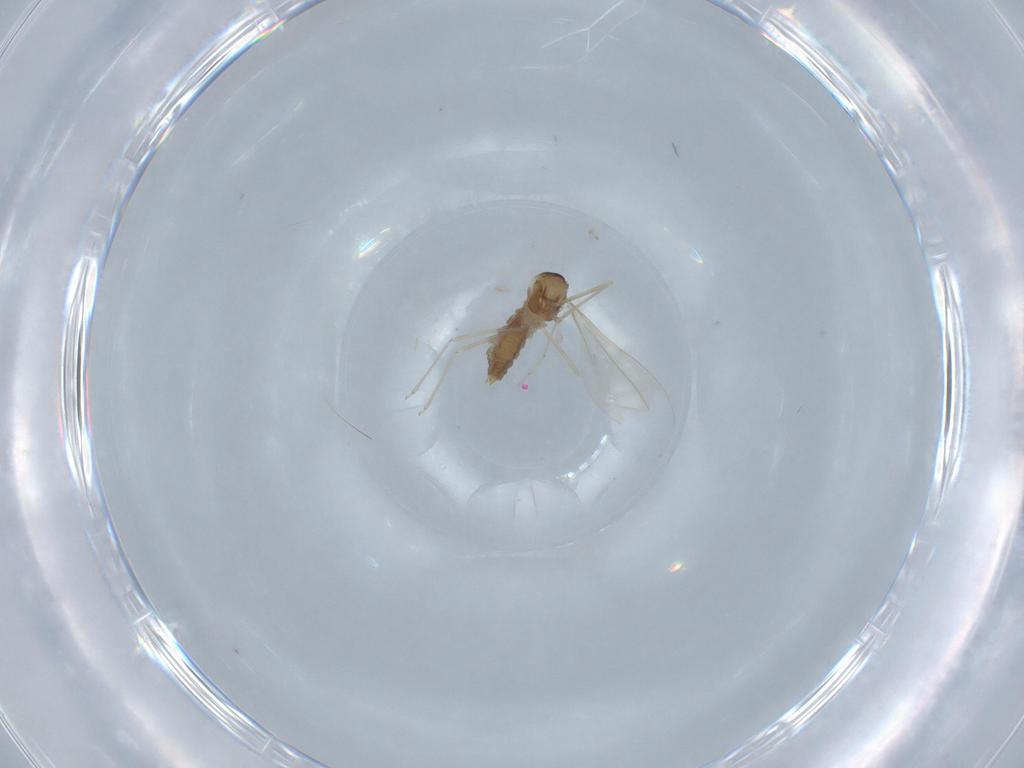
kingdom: Animalia
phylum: Arthropoda
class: Insecta
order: Diptera
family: Cecidomyiidae
